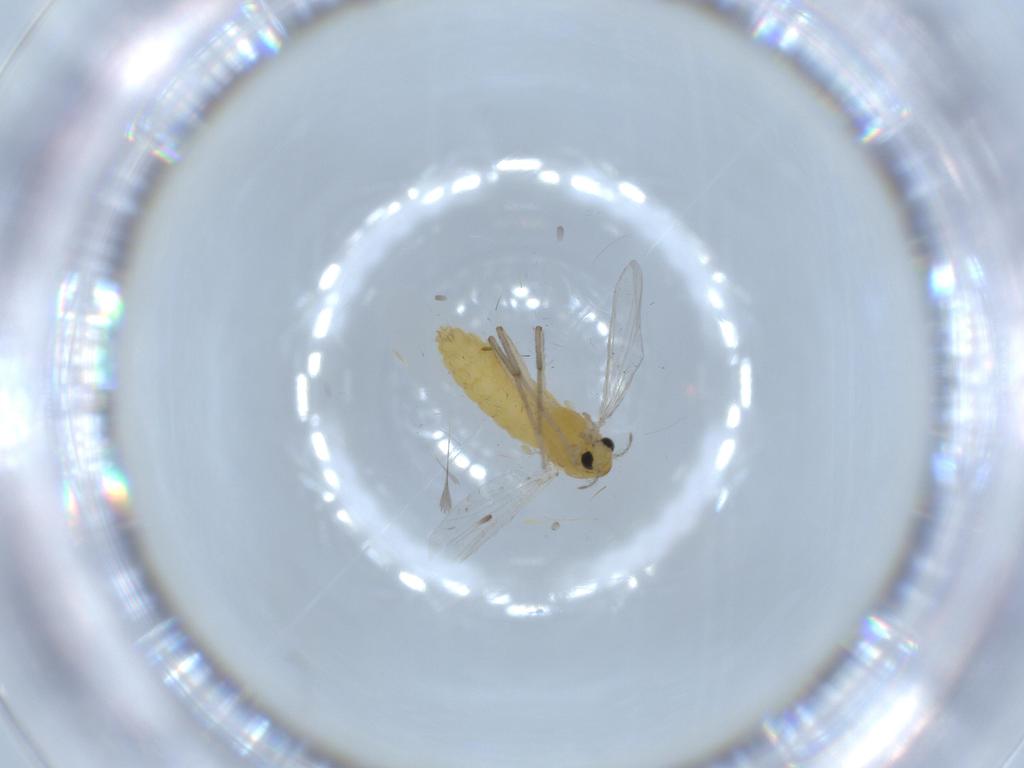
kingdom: Animalia
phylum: Arthropoda
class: Insecta
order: Diptera
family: Chironomidae
